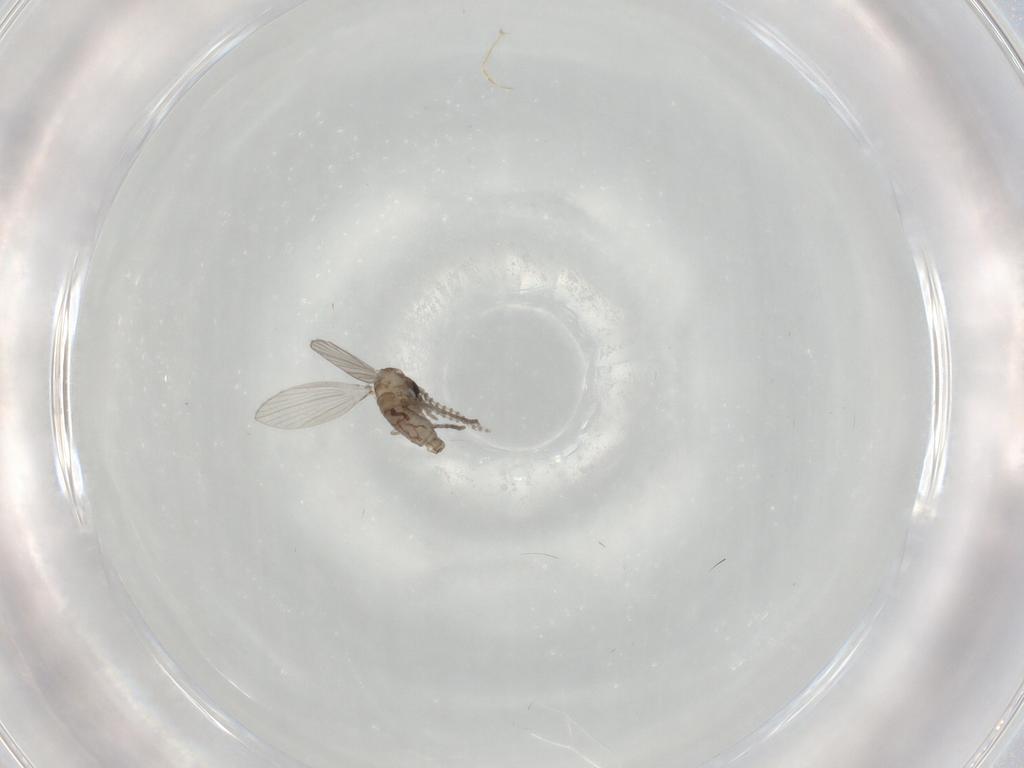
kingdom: Animalia
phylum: Arthropoda
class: Insecta
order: Diptera
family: Psychodidae
